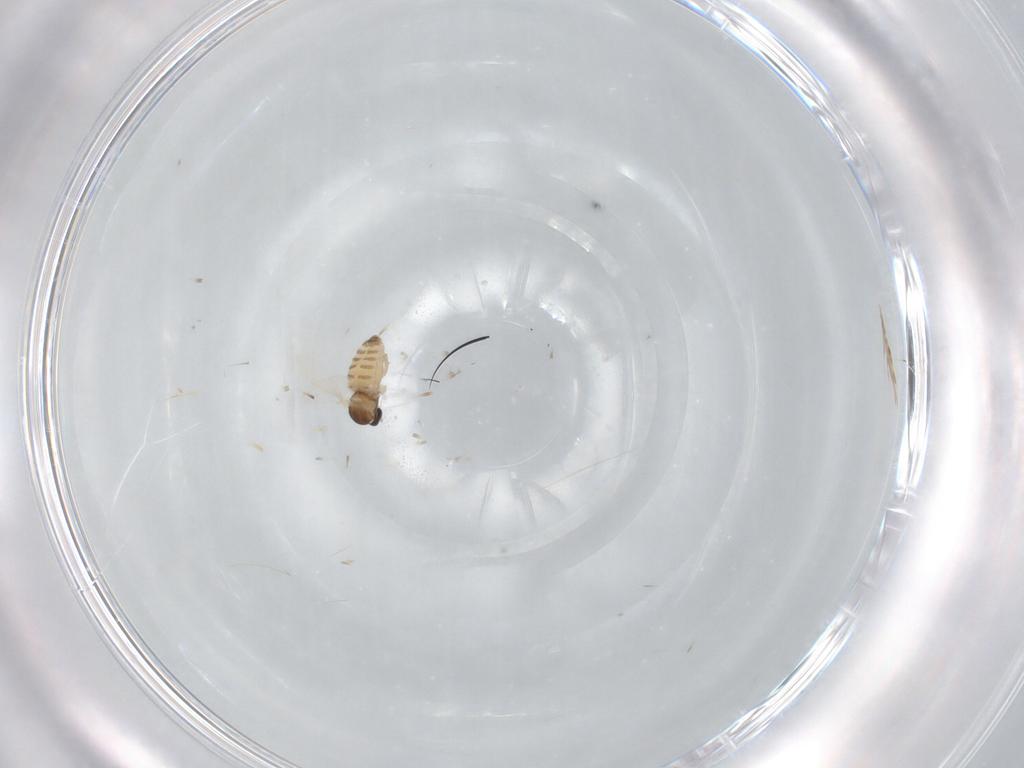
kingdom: Animalia
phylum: Arthropoda
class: Insecta
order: Diptera
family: Cecidomyiidae
